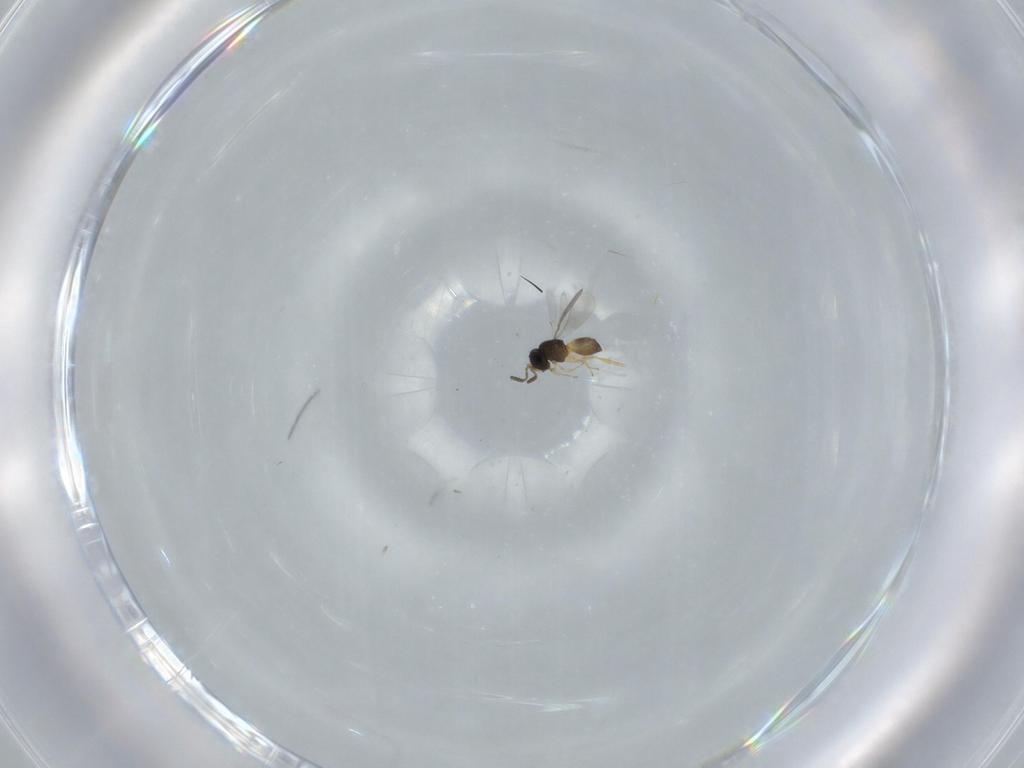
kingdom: Animalia
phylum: Arthropoda
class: Insecta
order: Hymenoptera
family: Scelionidae
